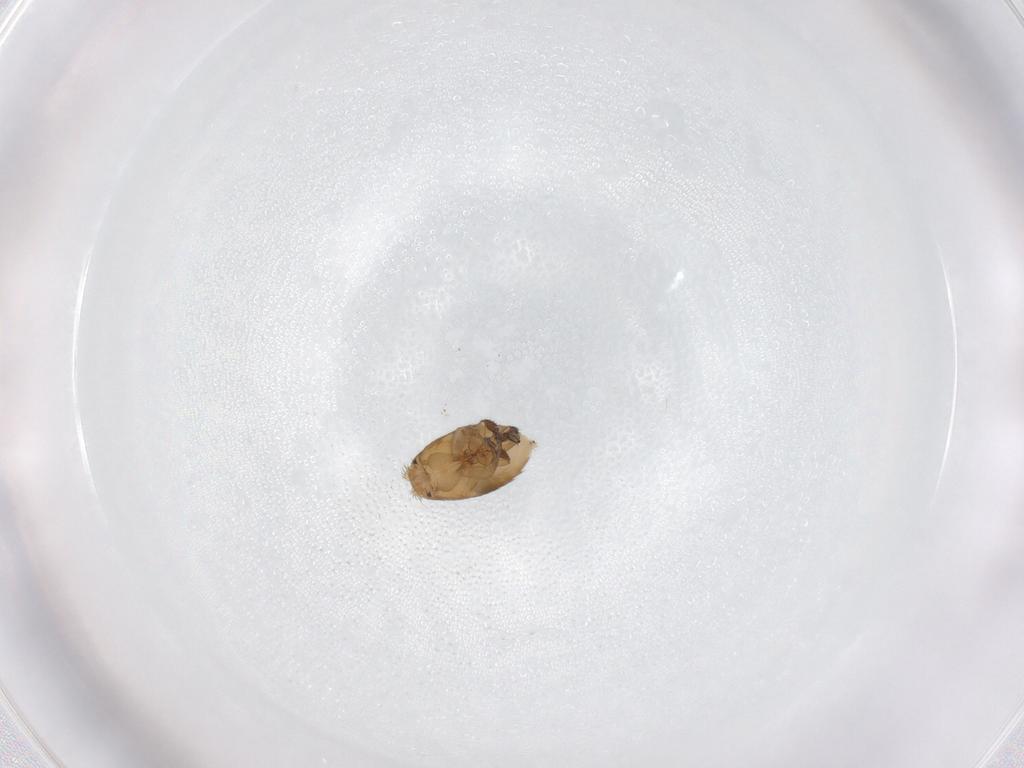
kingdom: Animalia
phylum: Arthropoda
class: Insecta
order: Diptera
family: Phoridae
